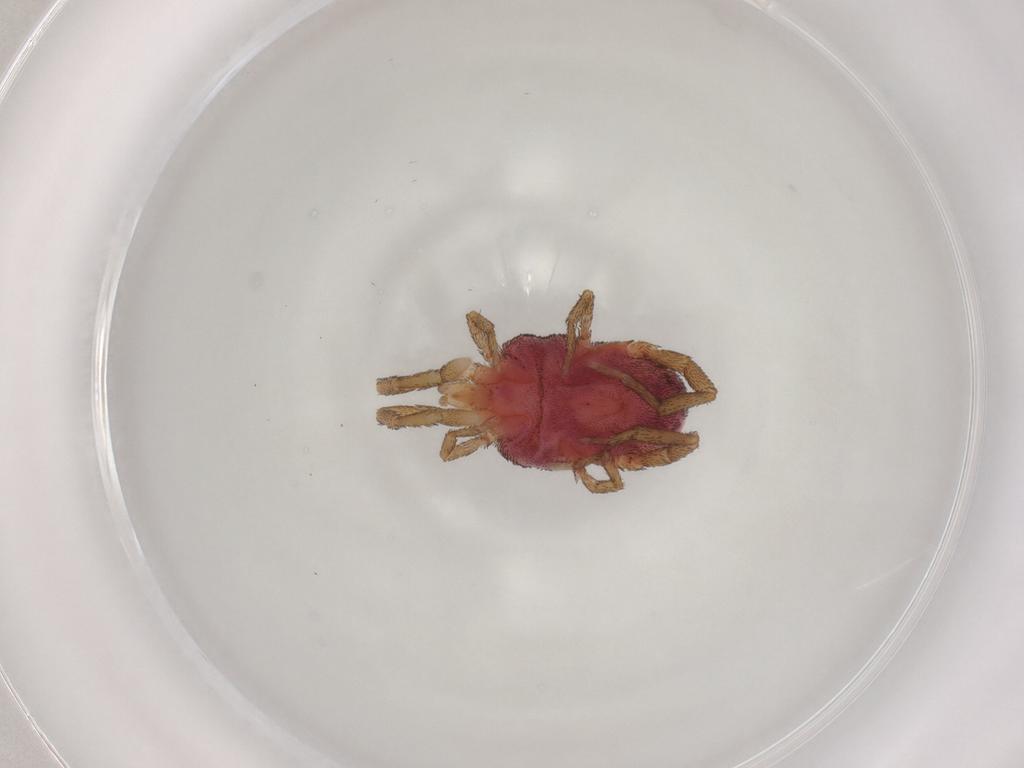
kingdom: Animalia
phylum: Arthropoda
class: Arachnida
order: Trombidiformes
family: Erythraeidae
